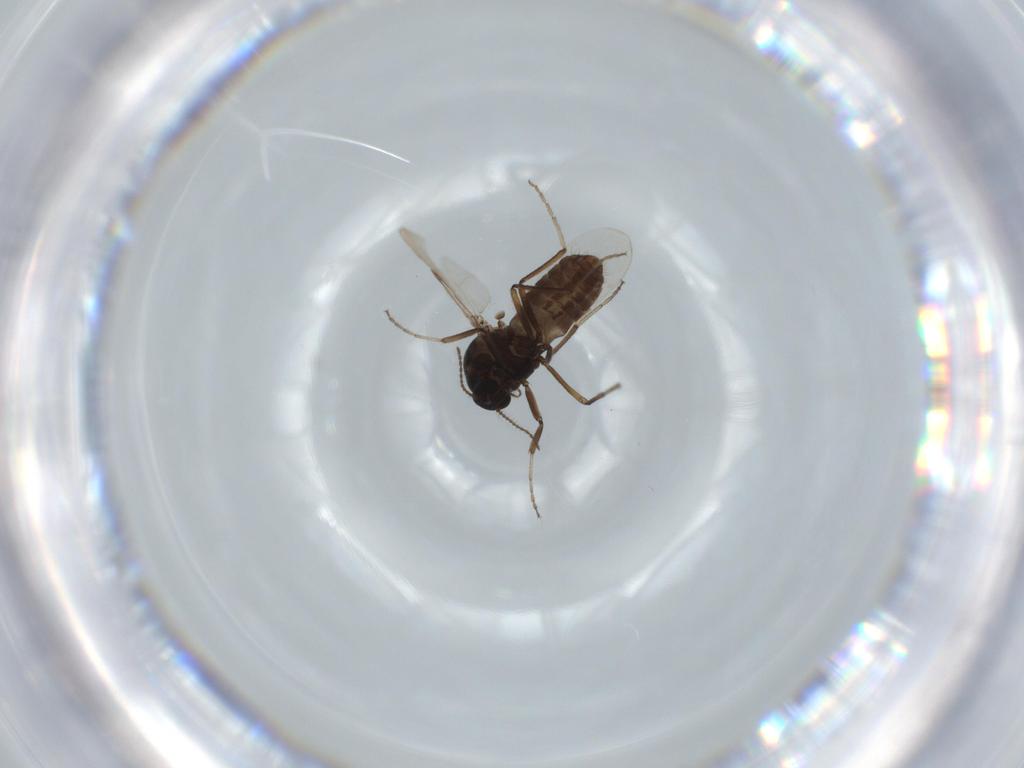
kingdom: Animalia
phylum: Arthropoda
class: Insecta
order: Diptera
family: Chironomidae
